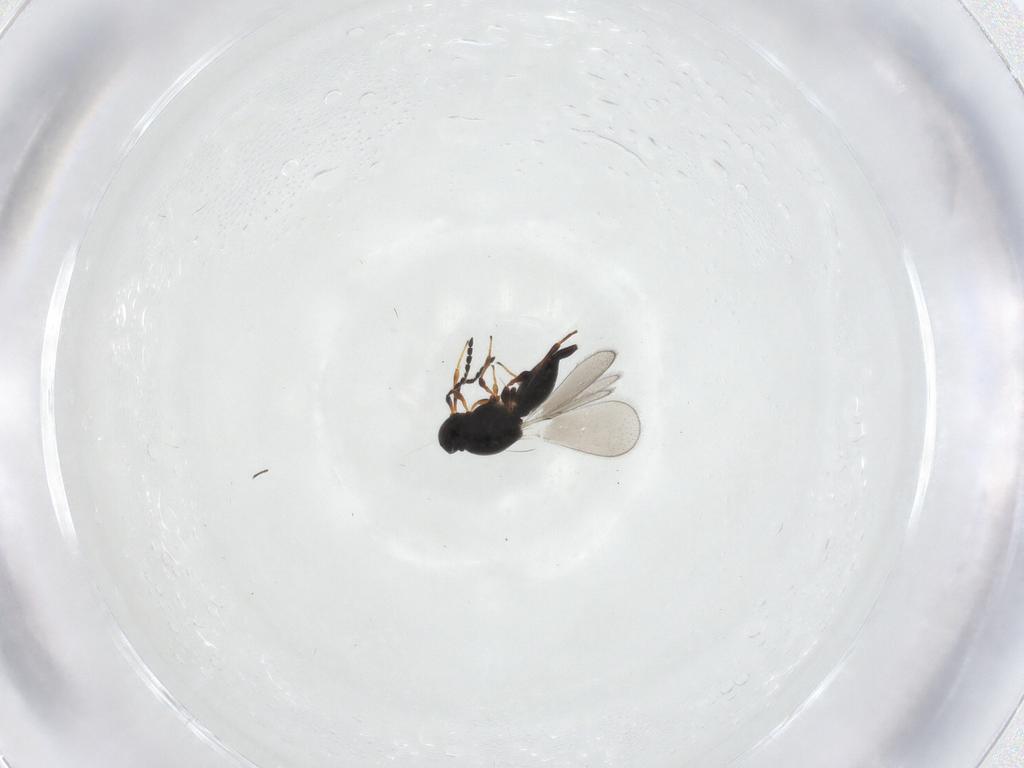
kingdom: Animalia
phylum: Arthropoda
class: Insecta
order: Hymenoptera
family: Platygastridae
